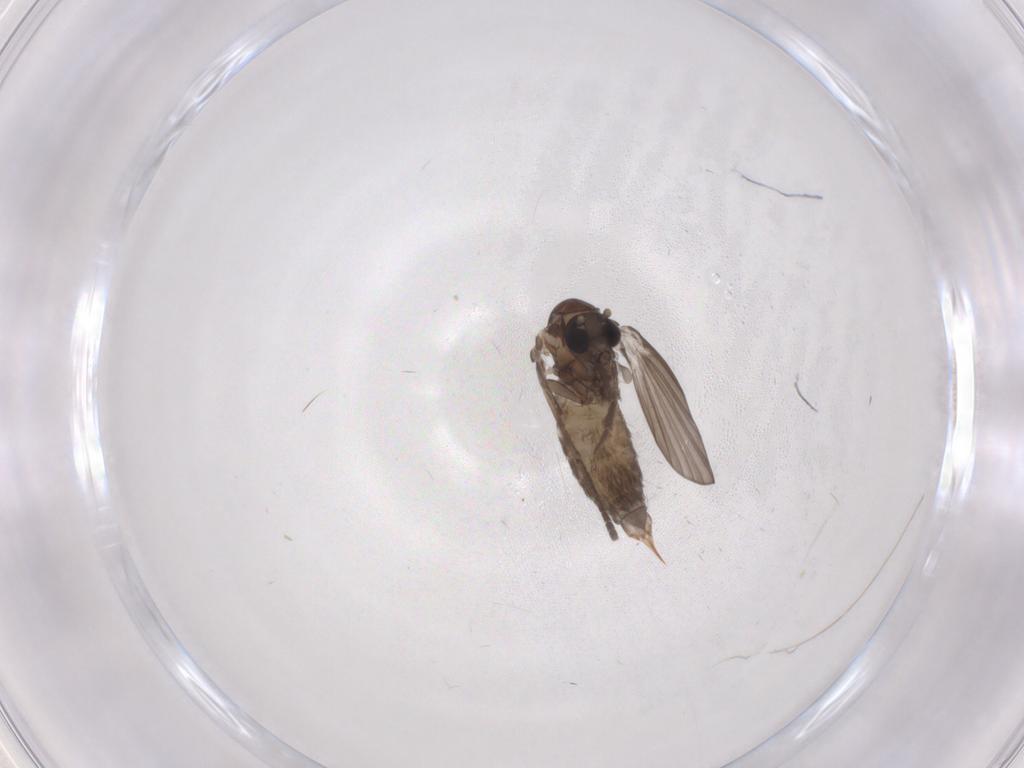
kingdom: Animalia
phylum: Arthropoda
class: Insecta
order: Diptera
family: Psychodidae
